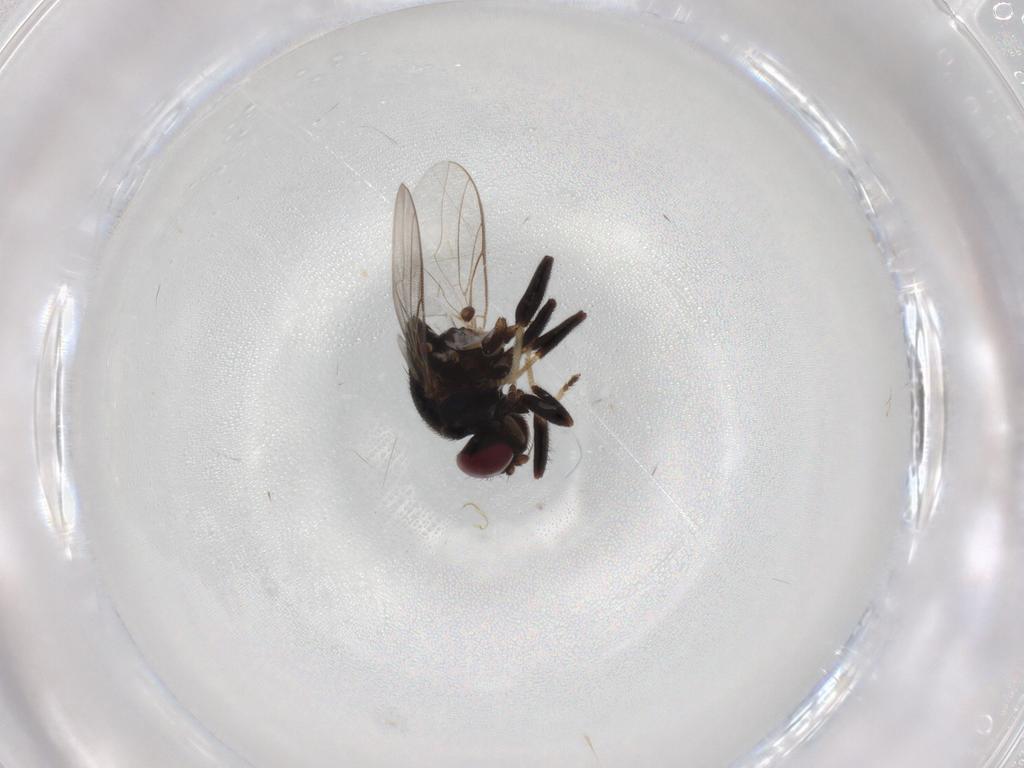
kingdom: Animalia
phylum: Arthropoda
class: Insecta
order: Diptera
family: Chloropidae
